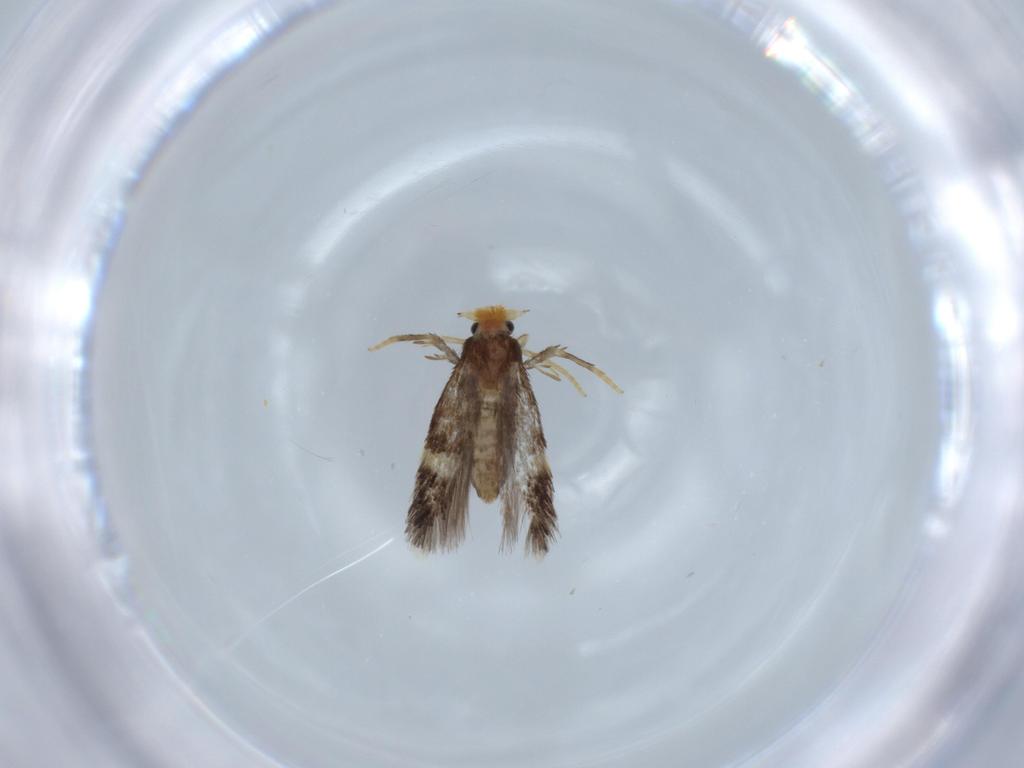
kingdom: Animalia
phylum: Arthropoda
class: Insecta
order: Lepidoptera
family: Nepticulidae
